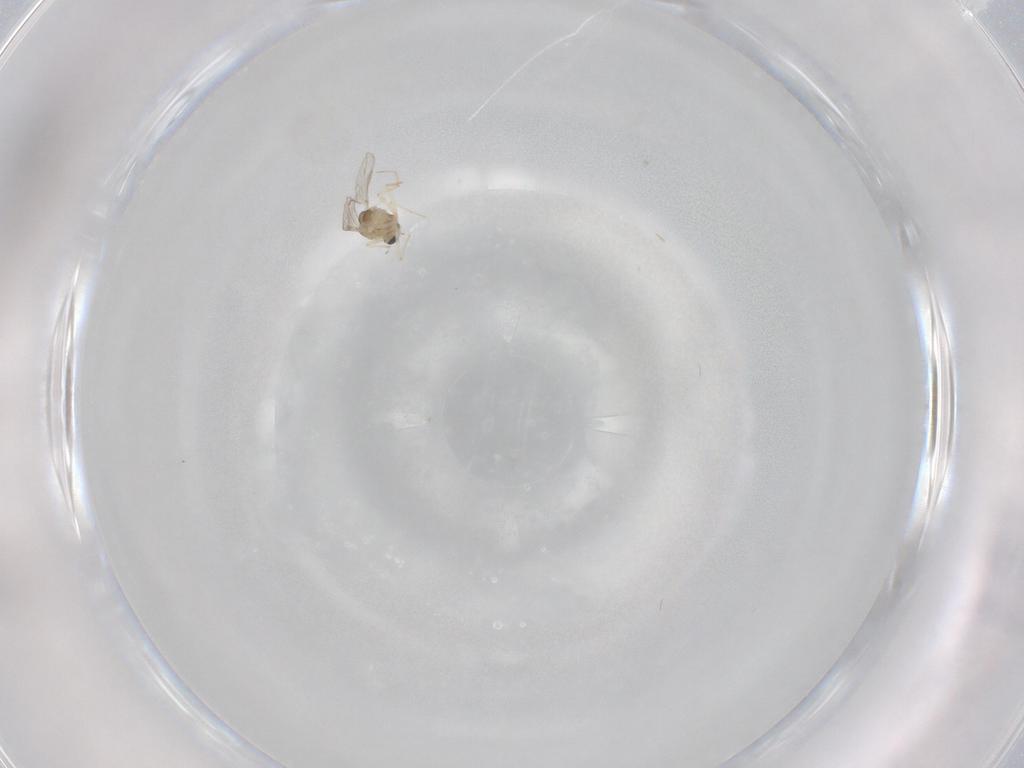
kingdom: Animalia
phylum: Arthropoda
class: Insecta
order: Diptera
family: Chironomidae
